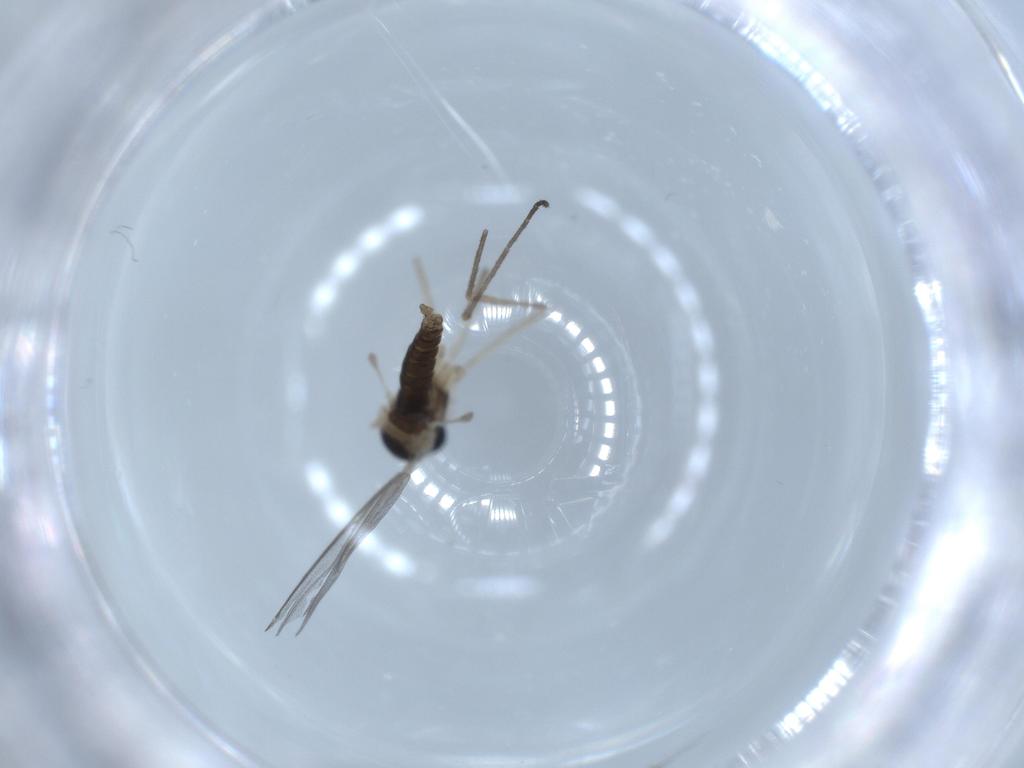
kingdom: Animalia
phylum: Arthropoda
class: Insecta
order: Diptera
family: Cecidomyiidae
